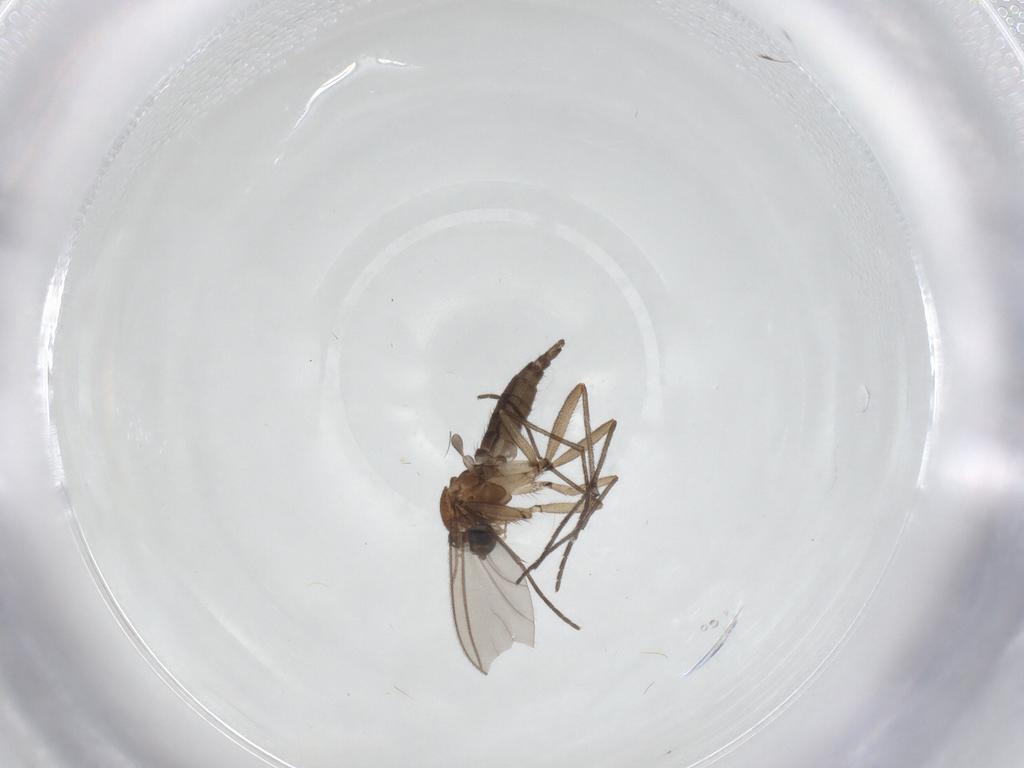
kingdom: Animalia
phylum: Arthropoda
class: Insecta
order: Diptera
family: Sciaridae
